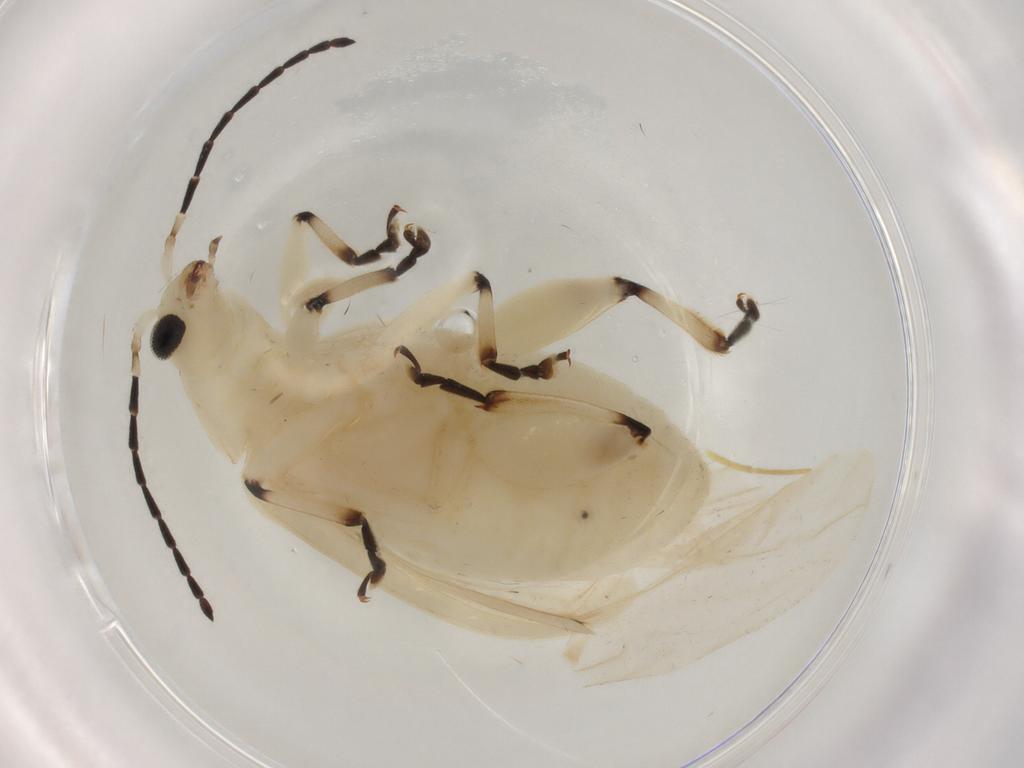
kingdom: Animalia
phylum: Arthropoda
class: Insecta
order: Coleoptera
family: Chrysomelidae
